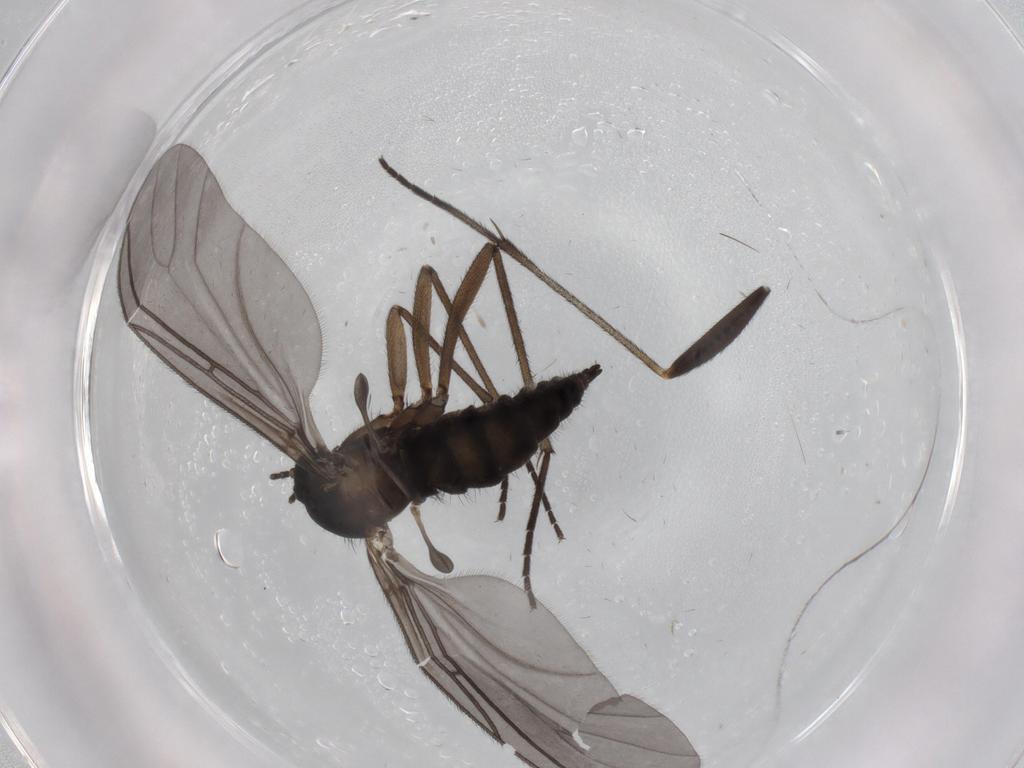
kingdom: Animalia
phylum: Arthropoda
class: Insecta
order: Diptera
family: Sciaridae
